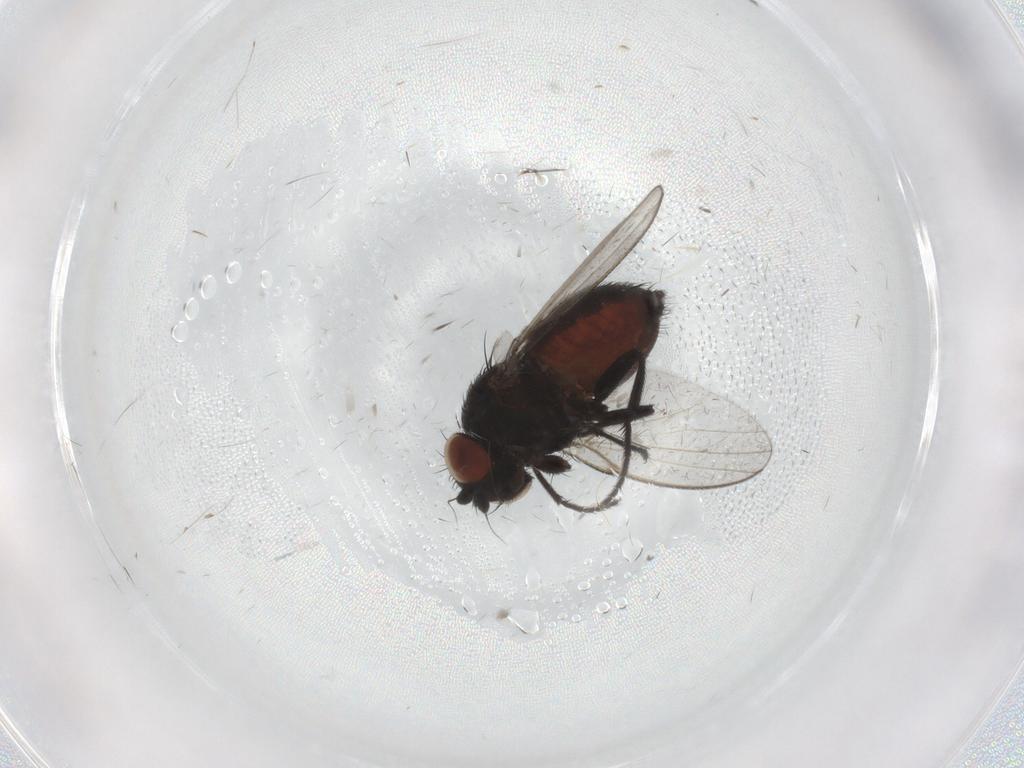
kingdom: Animalia
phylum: Arthropoda
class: Insecta
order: Diptera
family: Milichiidae
